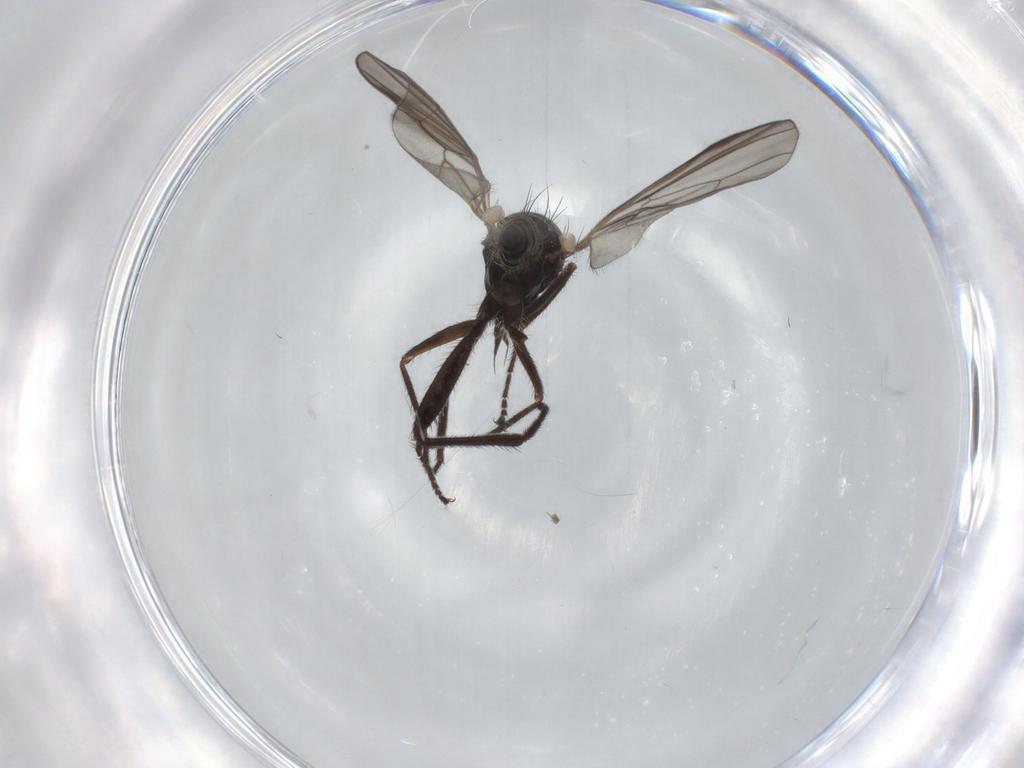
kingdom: Animalia
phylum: Arthropoda
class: Insecta
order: Diptera
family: Hybotidae
